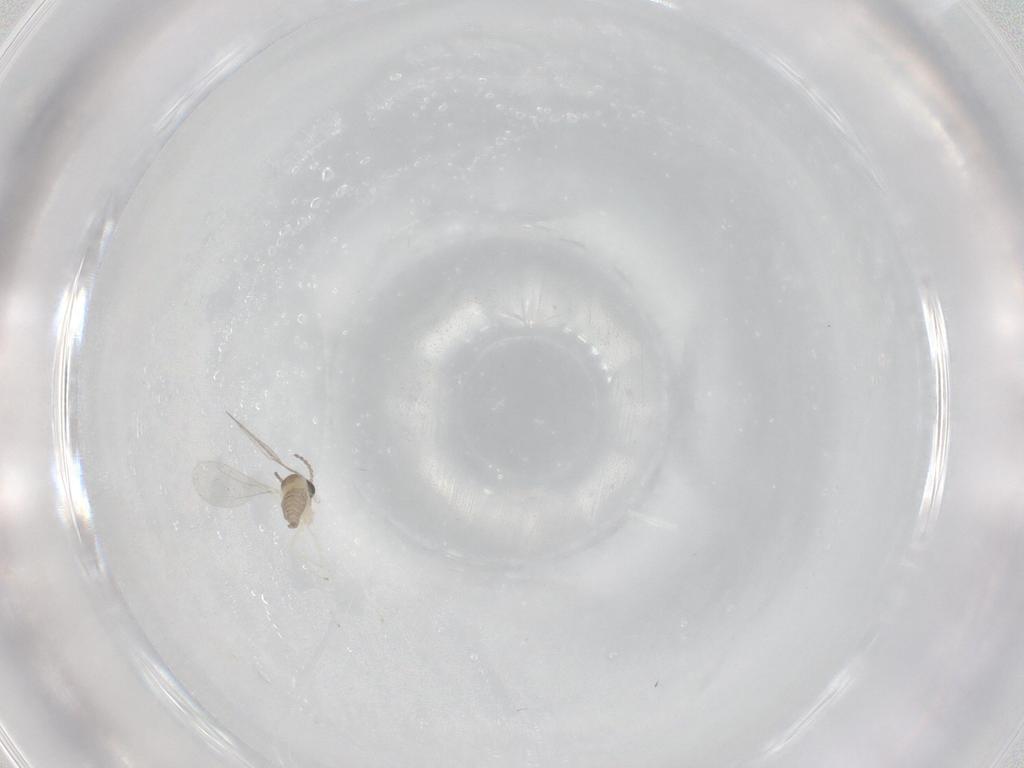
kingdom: Animalia
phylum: Arthropoda
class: Insecta
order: Diptera
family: Cecidomyiidae
